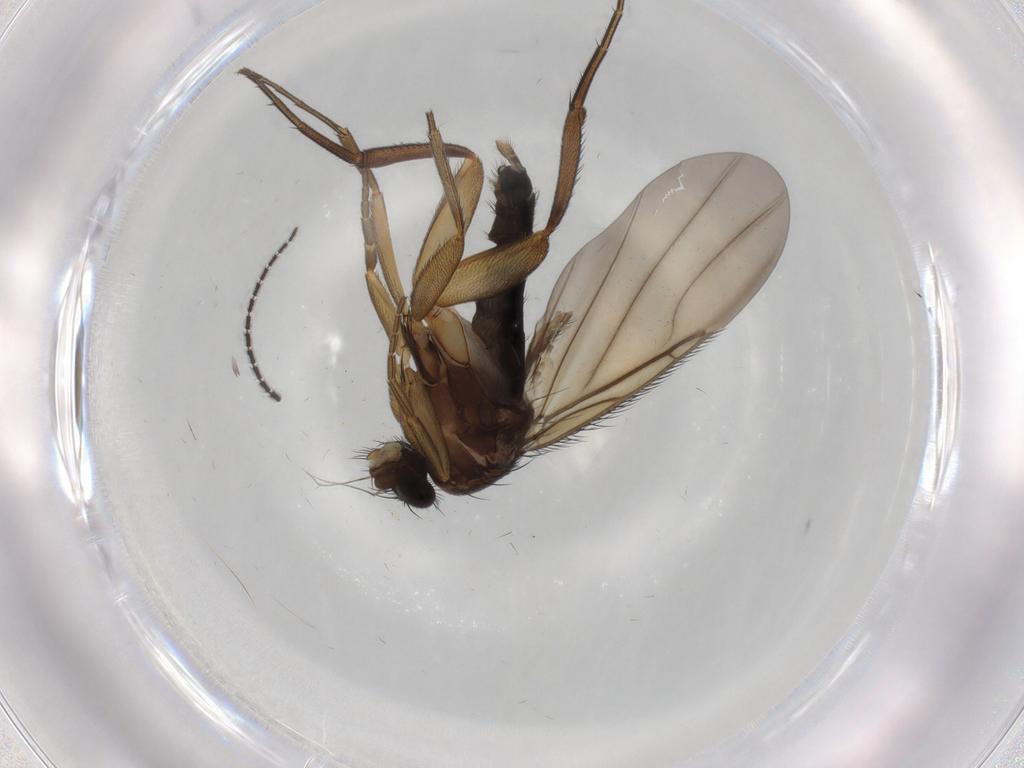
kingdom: Animalia
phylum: Arthropoda
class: Insecta
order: Diptera
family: Phoridae
